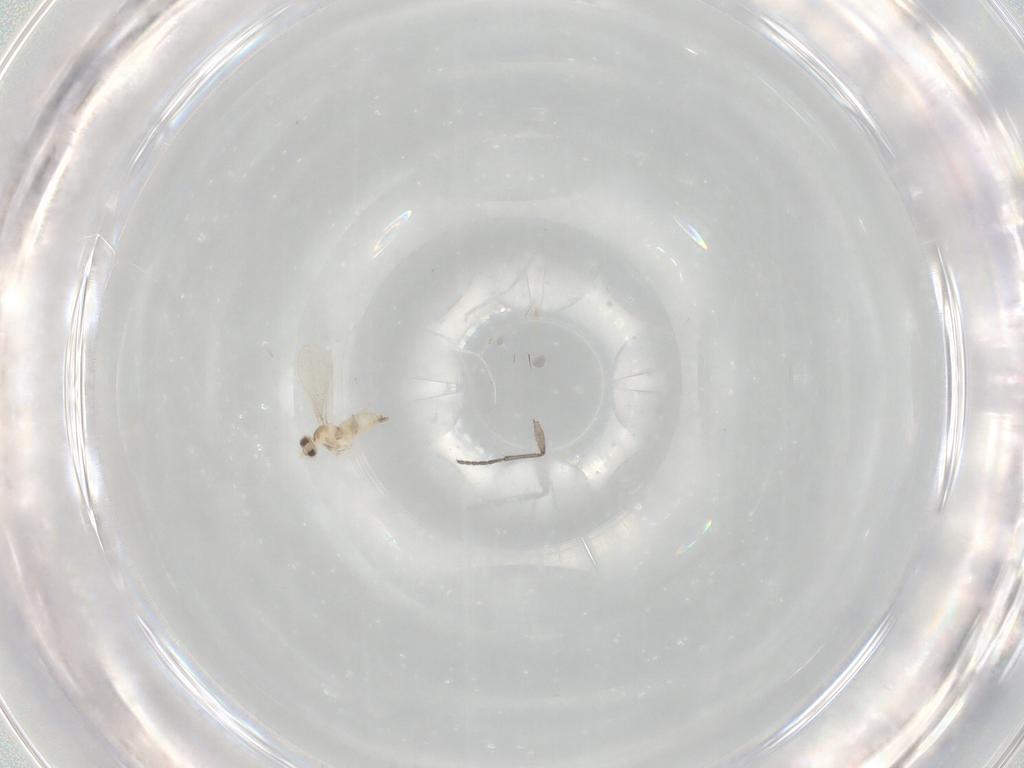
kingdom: Animalia
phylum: Arthropoda
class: Insecta
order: Diptera
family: Sciaridae
